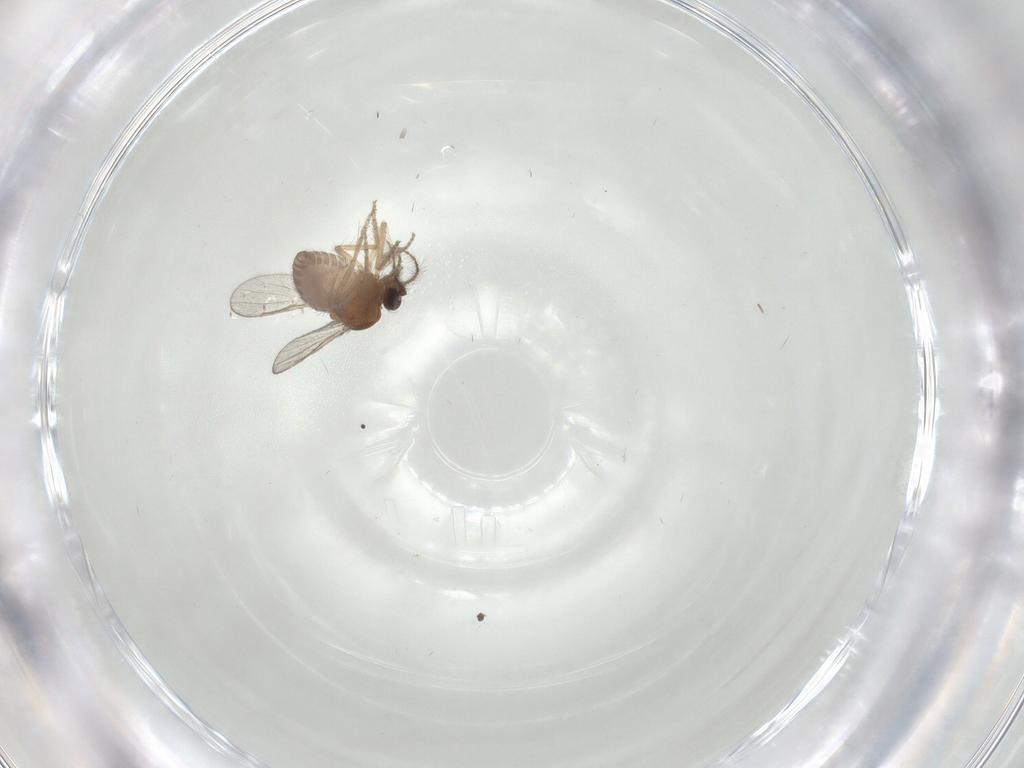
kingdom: Animalia
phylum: Arthropoda
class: Insecta
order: Diptera
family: Ceratopogonidae
